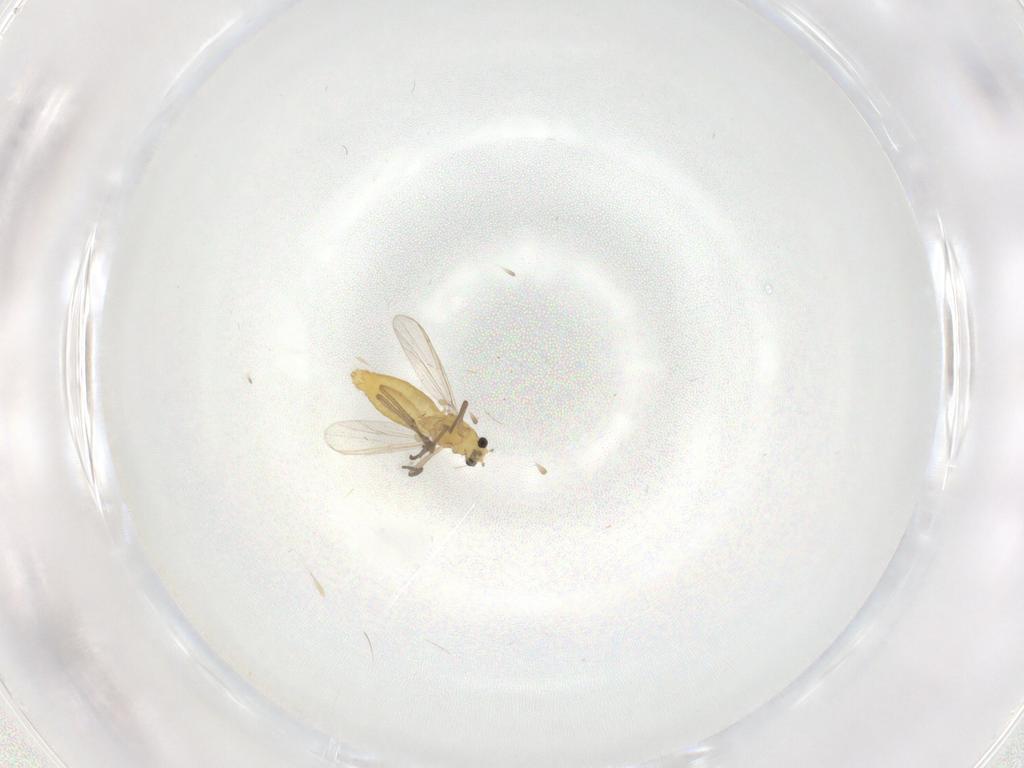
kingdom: Animalia
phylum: Arthropoda
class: Insecta
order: Diptera
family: Chironomidae
